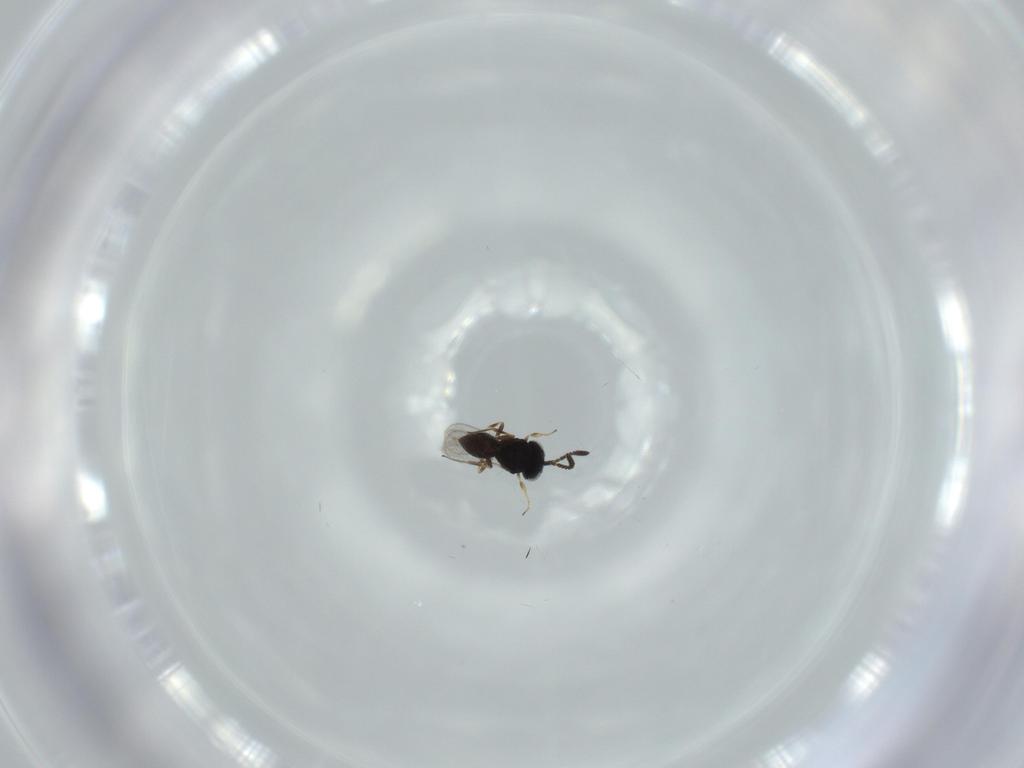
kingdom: Animalia
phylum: Arthropoda
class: Insecta
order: Hymenoptera
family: Scelionidae
